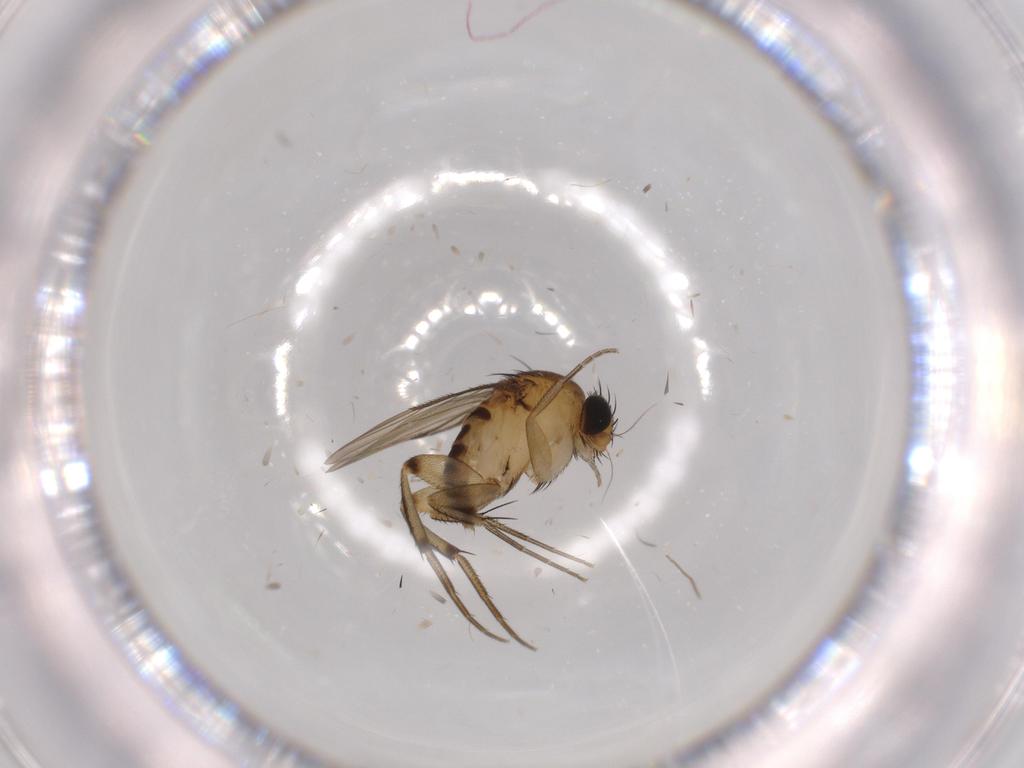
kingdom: Animalia
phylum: Arthropoda
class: Insecta
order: Diptera
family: Phoridae
